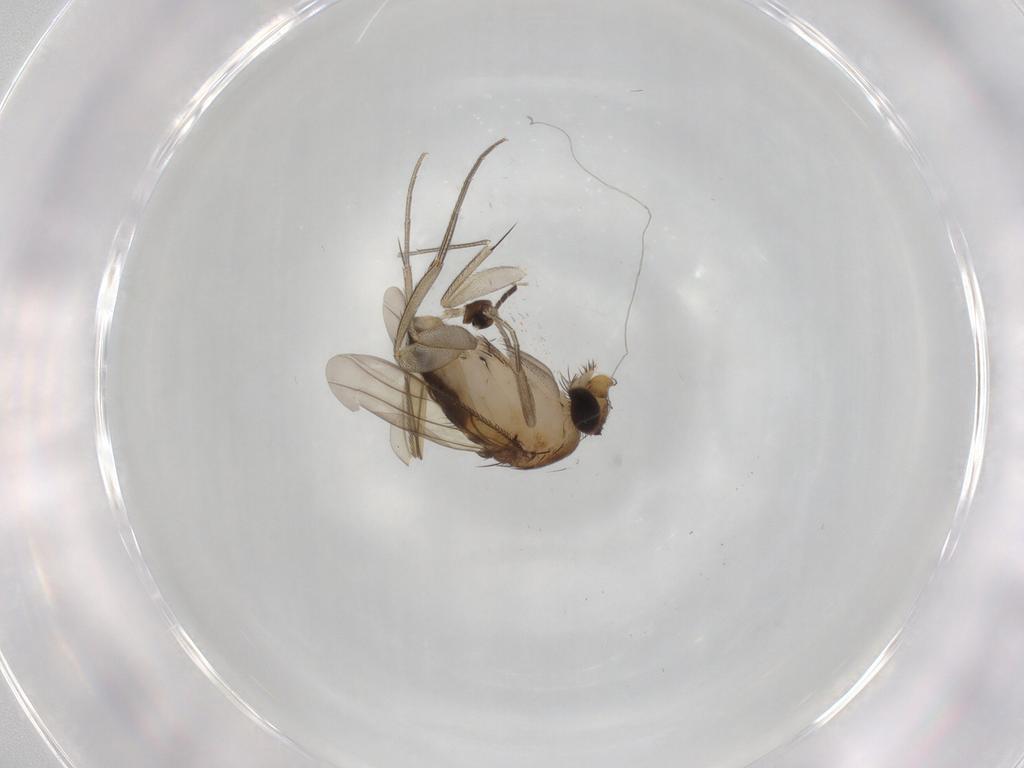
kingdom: Animalia
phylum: Arthropoda
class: Insecta
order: Diptera
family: Phoridae
